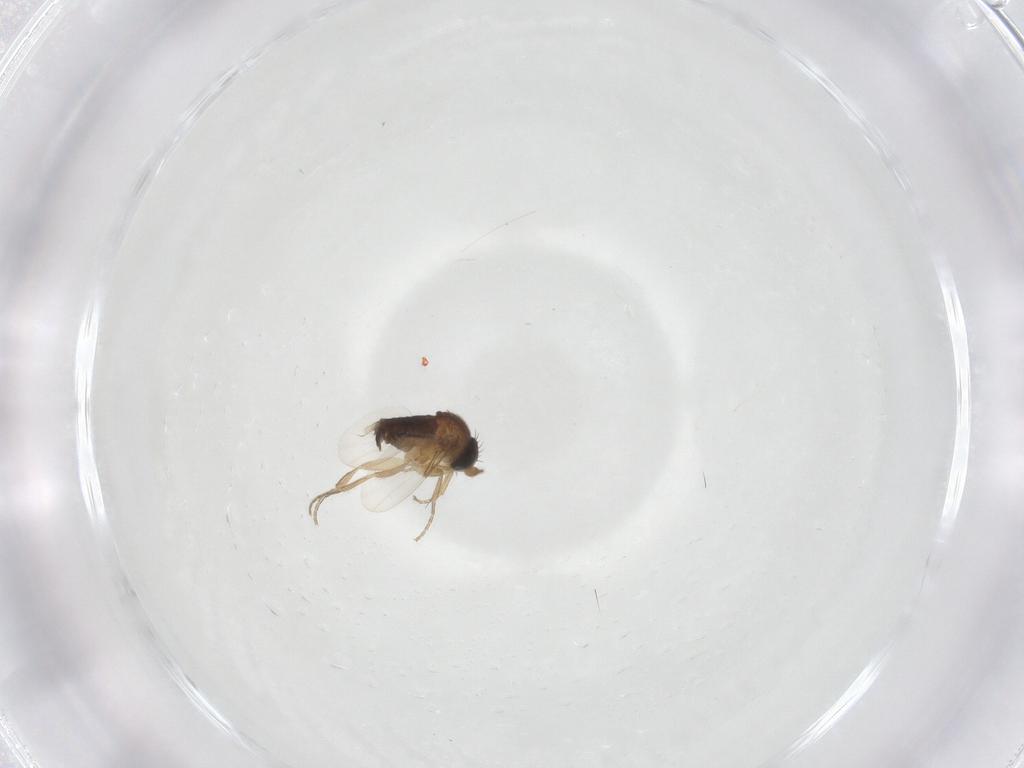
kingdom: Animalia
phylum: Arthropoda
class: Insecta
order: Diptera
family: Phoridae
